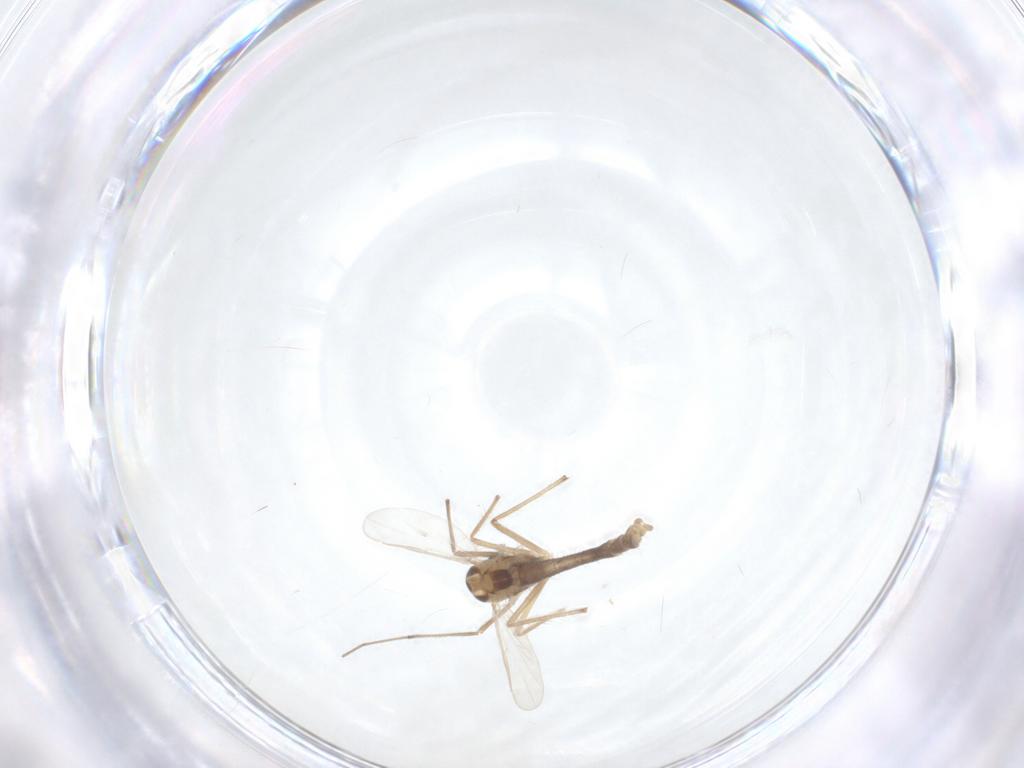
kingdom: Animalia
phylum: Arthropoda
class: Insecta
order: Diptera
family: Chironomidae
